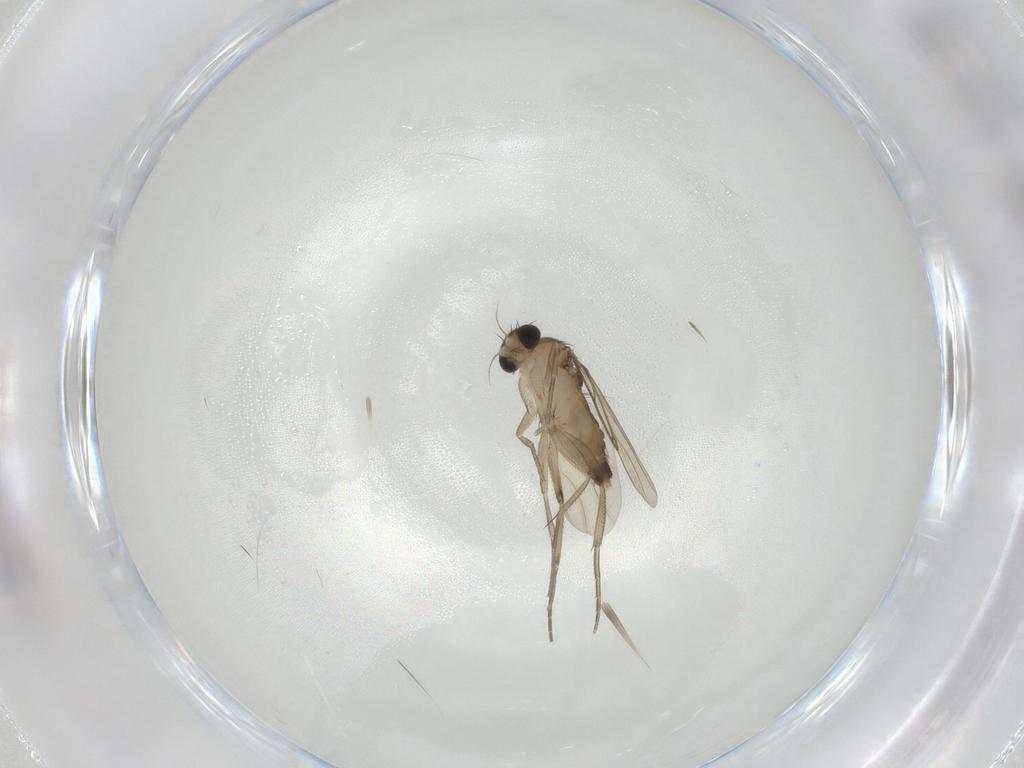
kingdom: Animalia
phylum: Arthropoda
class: Insecta
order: Diptera
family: Phoridae
